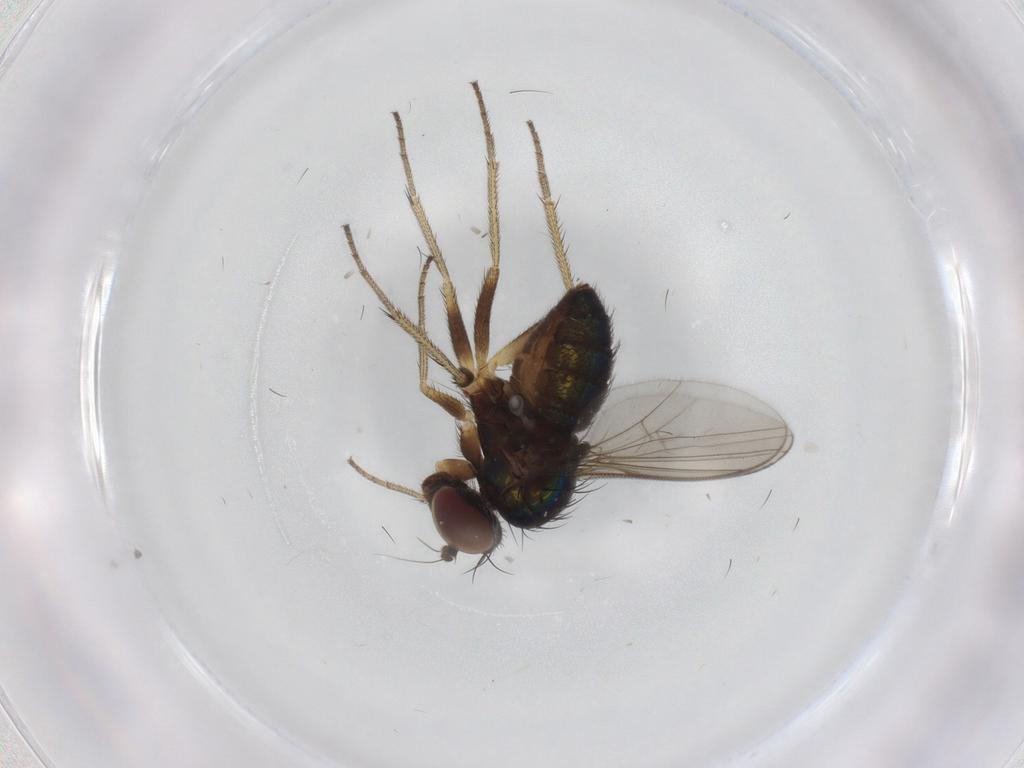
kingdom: Animalia
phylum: Arthropoda
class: Insecta
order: Diptera
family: Dolichopodidae
